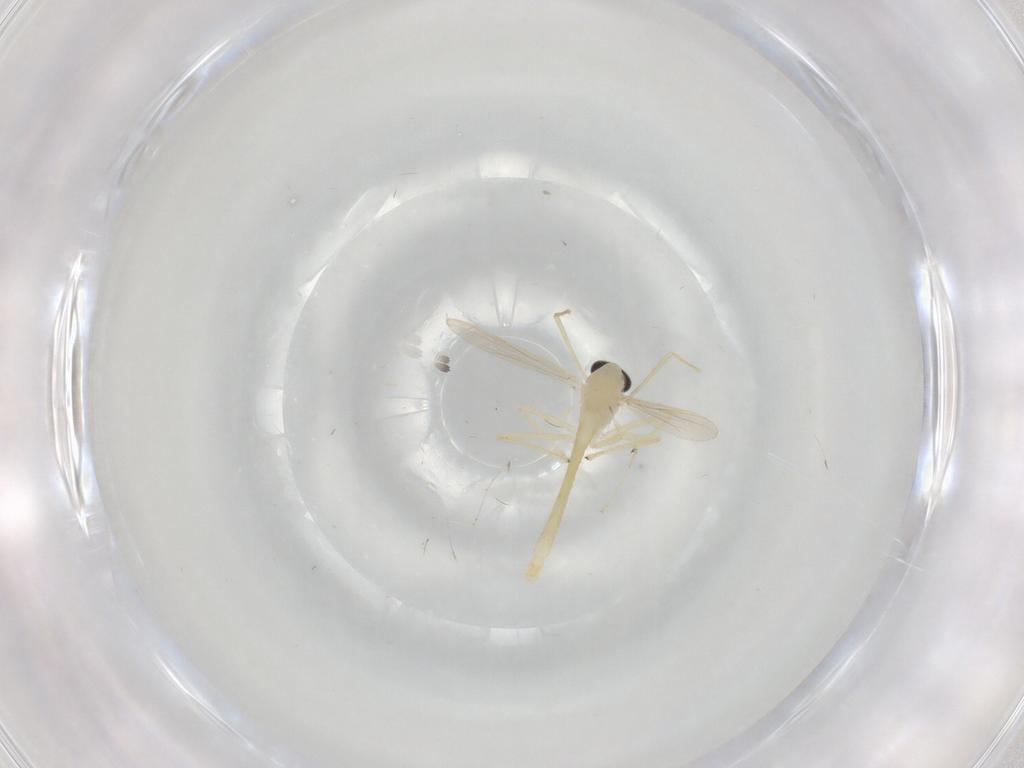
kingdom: Animalia
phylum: Arthropoda
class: Insecta
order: Diptera
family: Chironomidae
